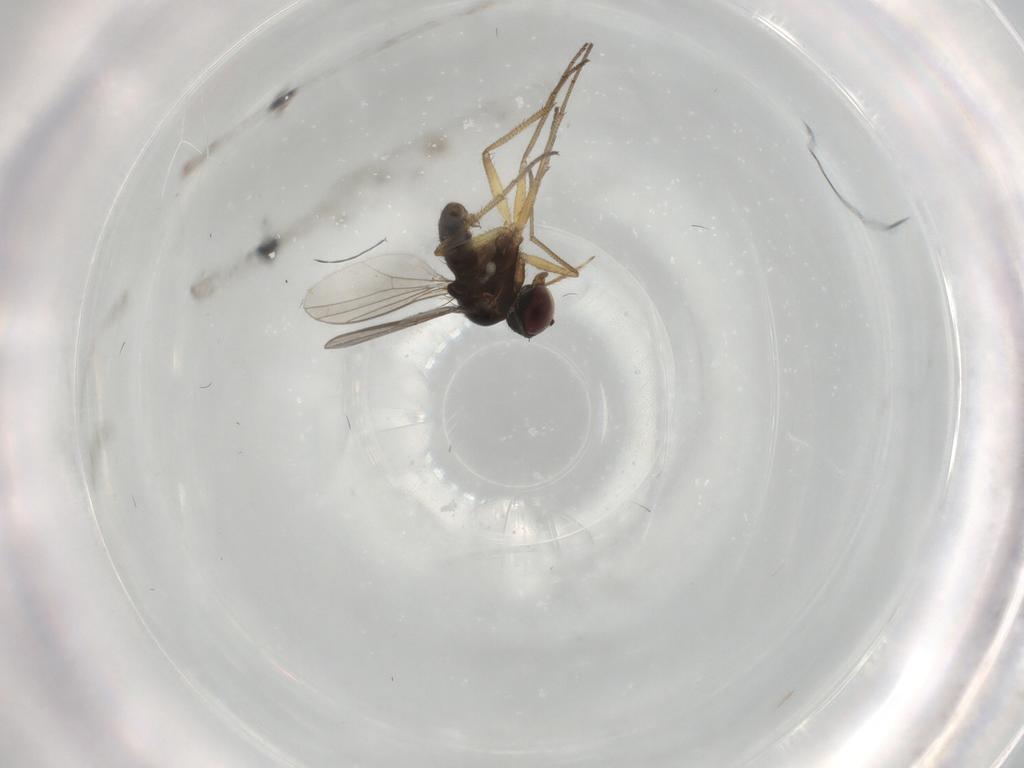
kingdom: Animalia
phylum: Arthropoda
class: Insecta
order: Diptera
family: Dolichopodidae
